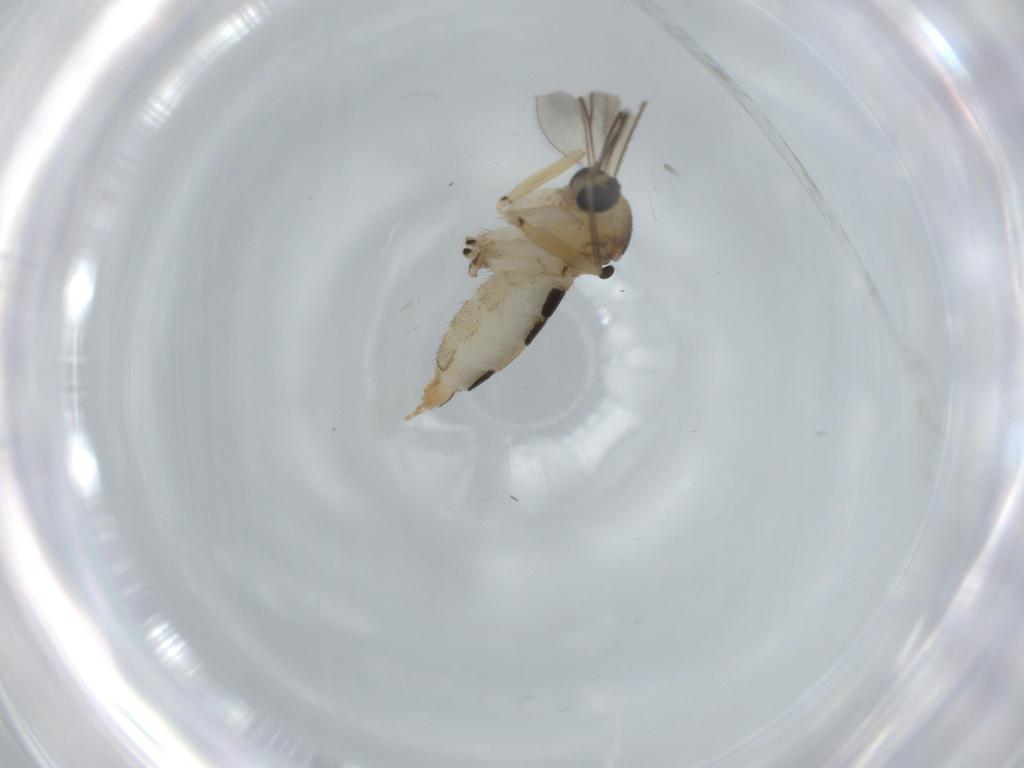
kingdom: Animalia
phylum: Arthropoda
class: Insecta
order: Diptera
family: Sciaridae
